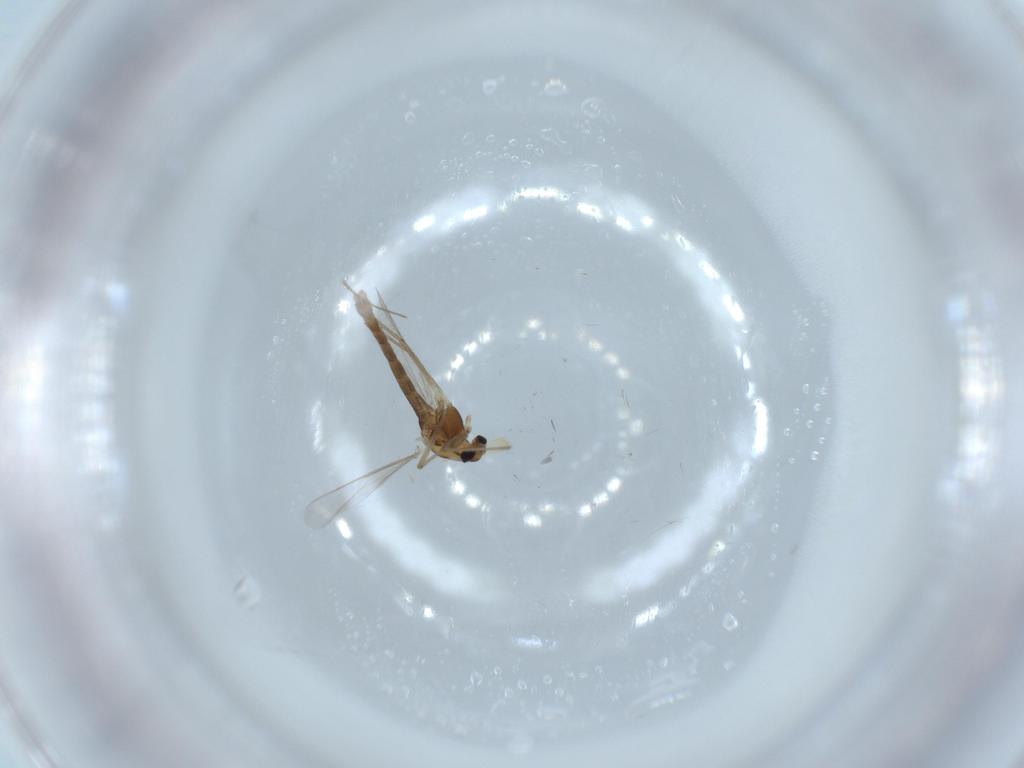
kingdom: Animalia
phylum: Arthropoda
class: Insecta
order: Diptera
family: Chironomidae
